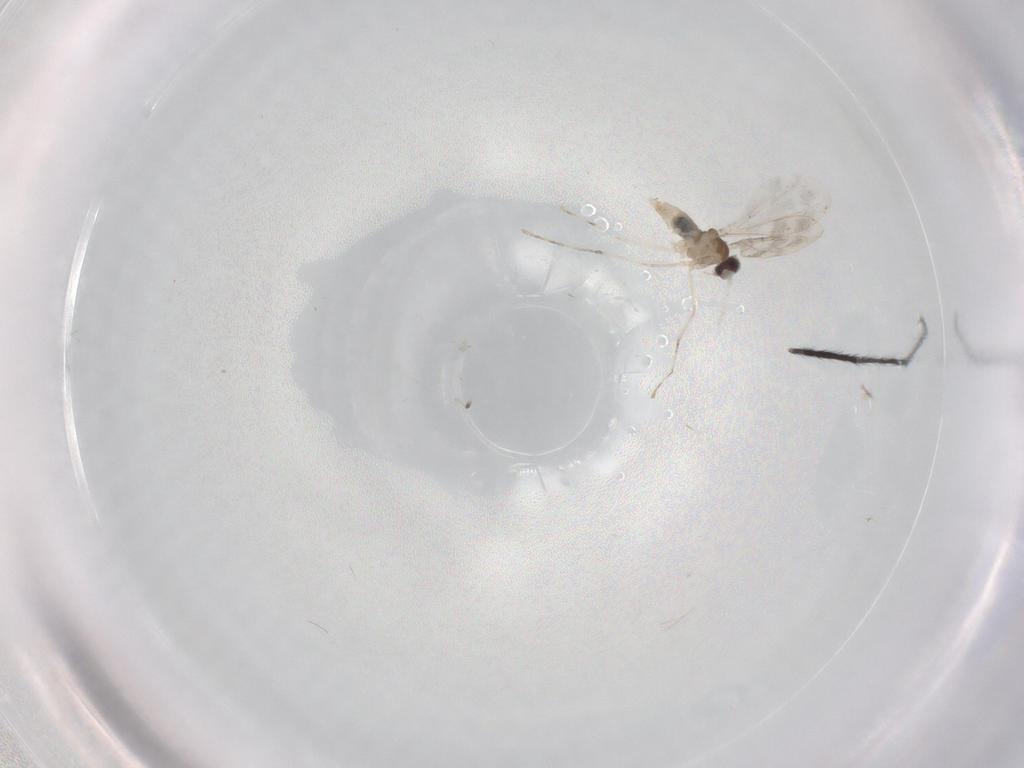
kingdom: Animalia
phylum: Arthropoda
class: Insecta
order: Diptera
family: Cecidomyiidae
